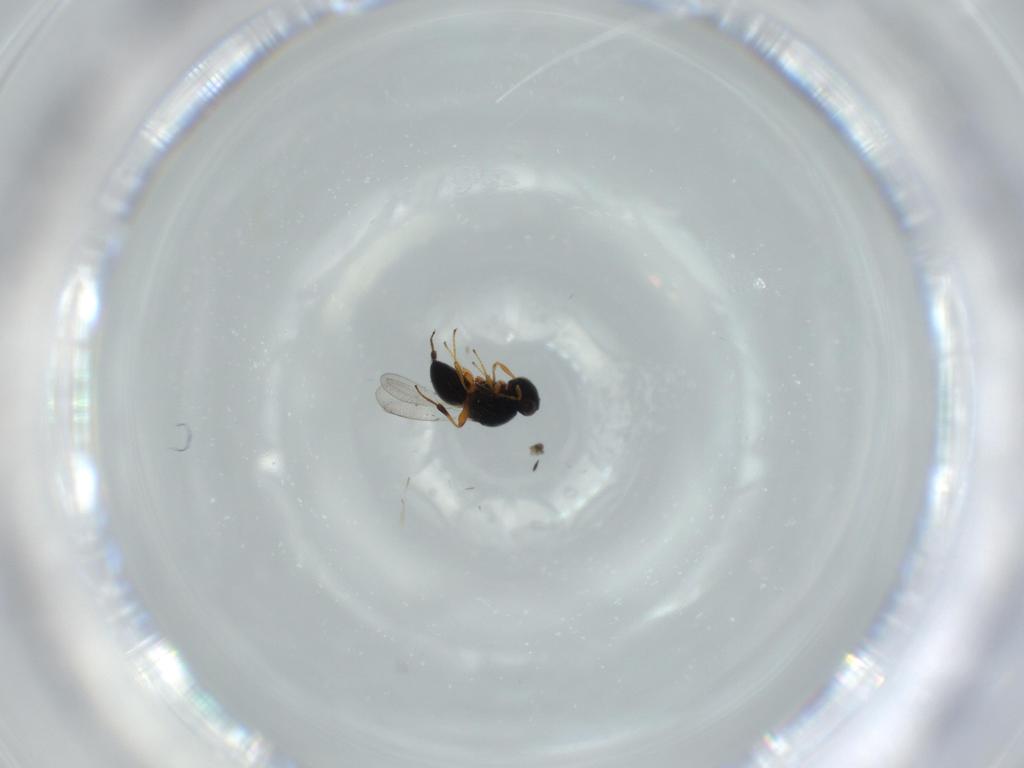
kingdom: Animalia
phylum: Arthropoda
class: Insecta
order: Hymenoptera
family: Platygastridae
